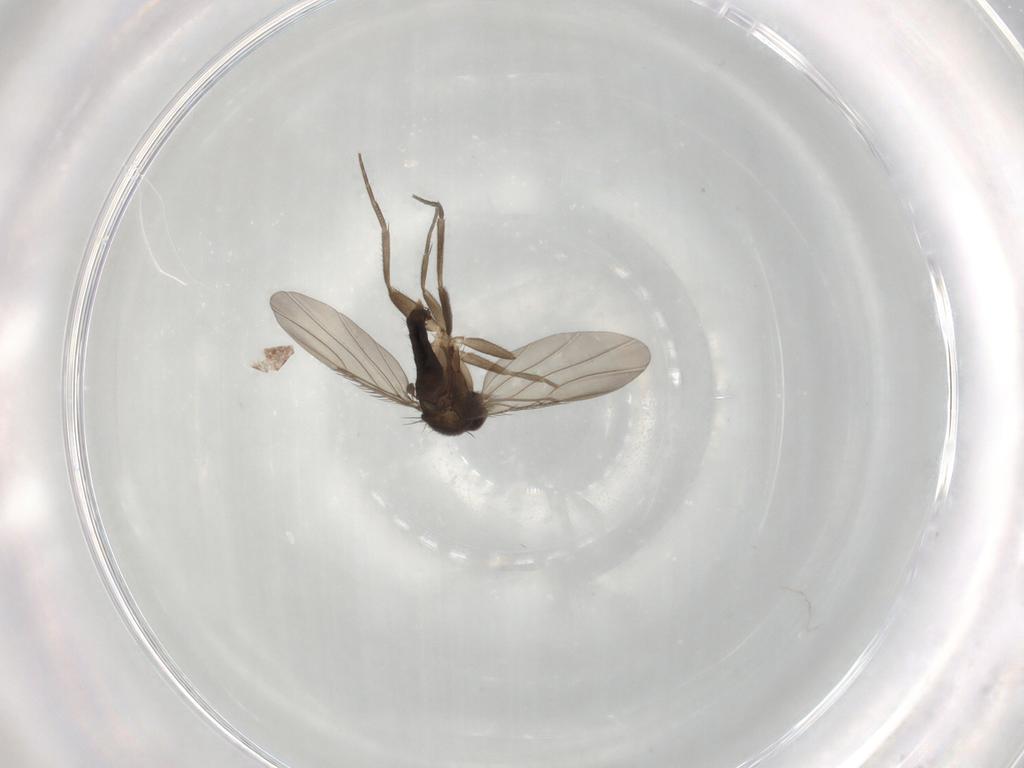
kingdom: Animalia
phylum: Arthropoda
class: Insecta
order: Diptera
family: Phoridae
